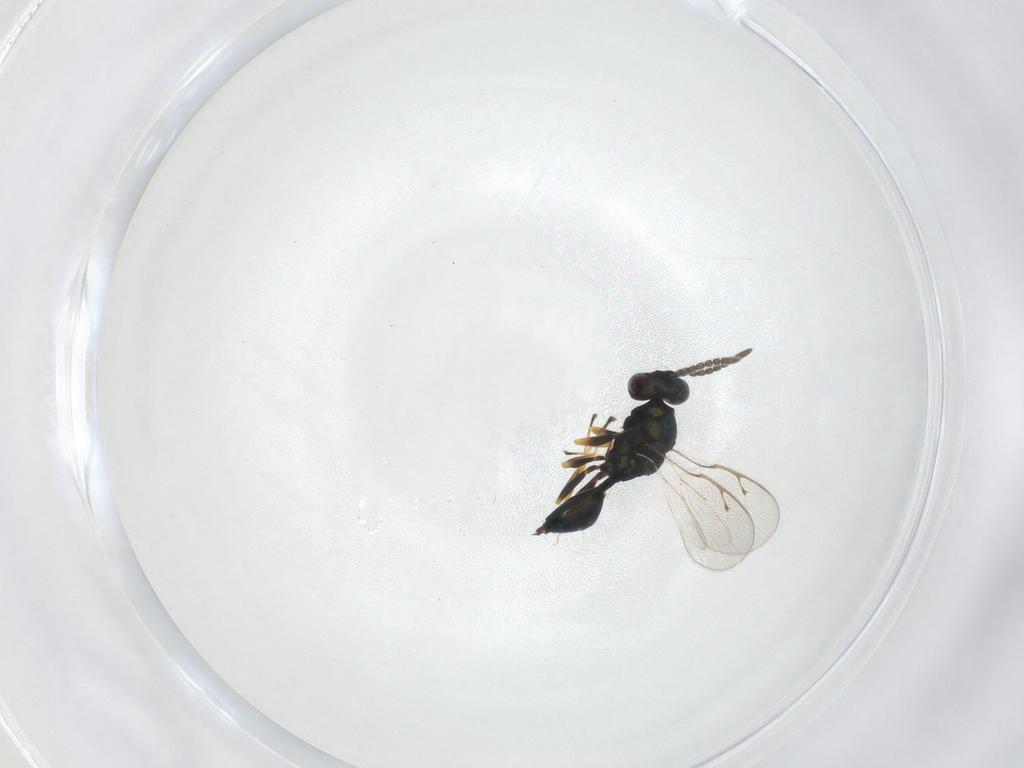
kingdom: Animalia
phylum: Arthropoda
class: Insecta
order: Hymenoptera
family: Pteromalidae
